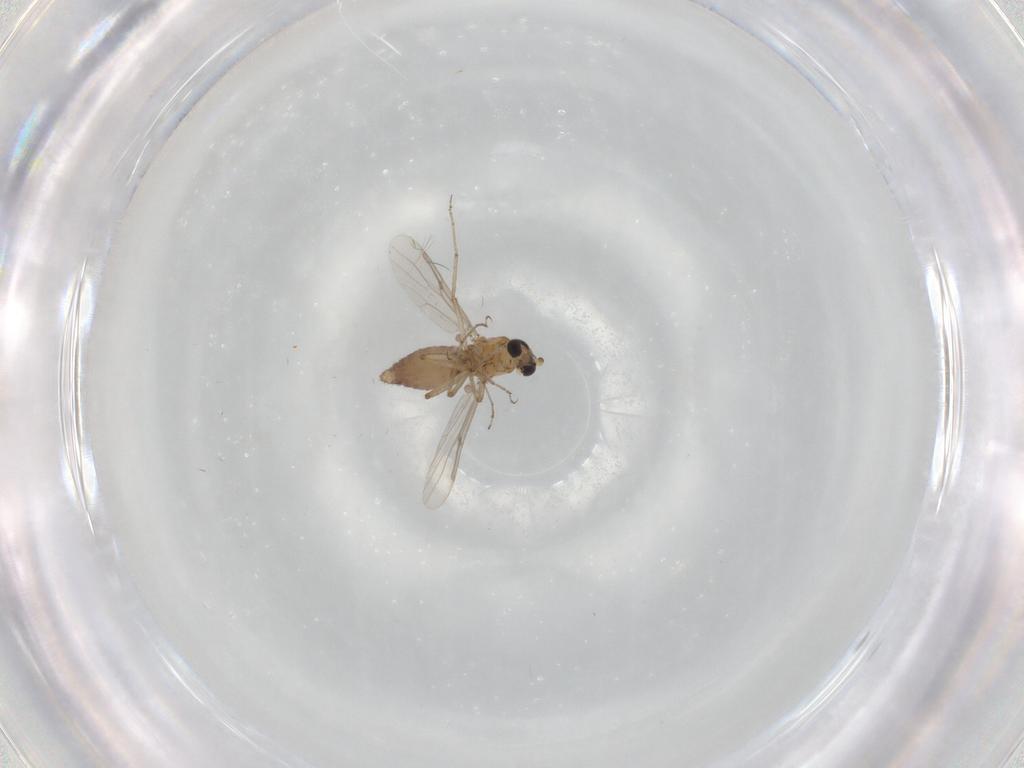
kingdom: Animalia
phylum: Arthropoda
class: Insecta
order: Diptera
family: Chironomidae
